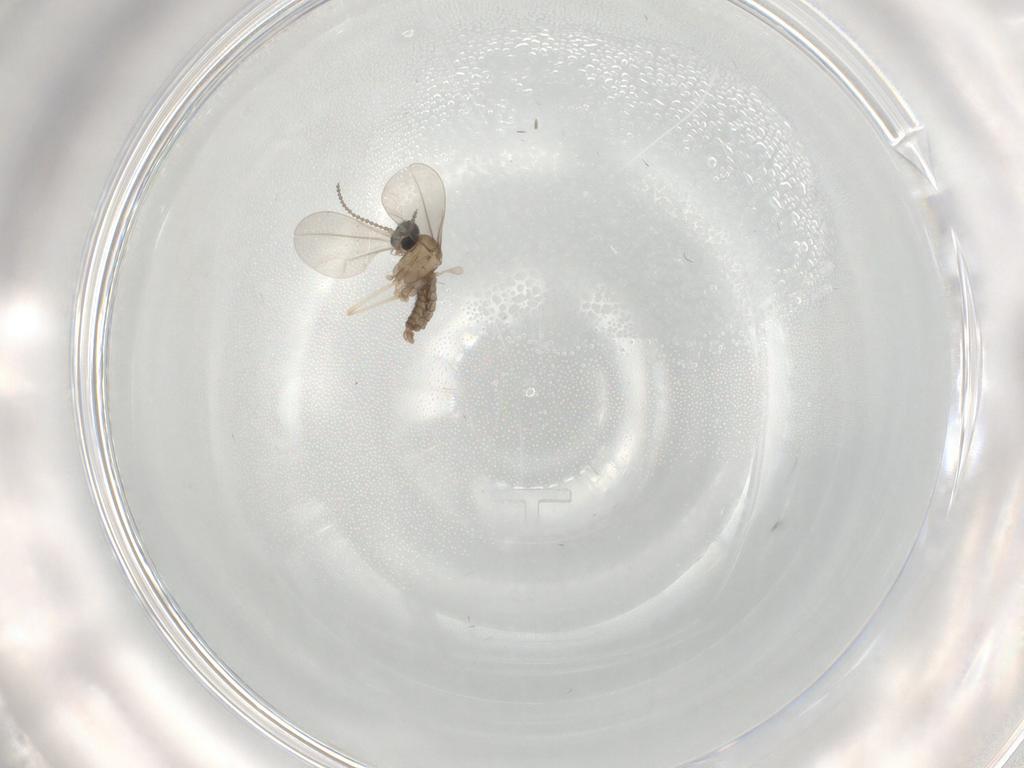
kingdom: Animalia
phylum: Arthropoda
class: Insecta
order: Diptera
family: Cecidomyiidae
